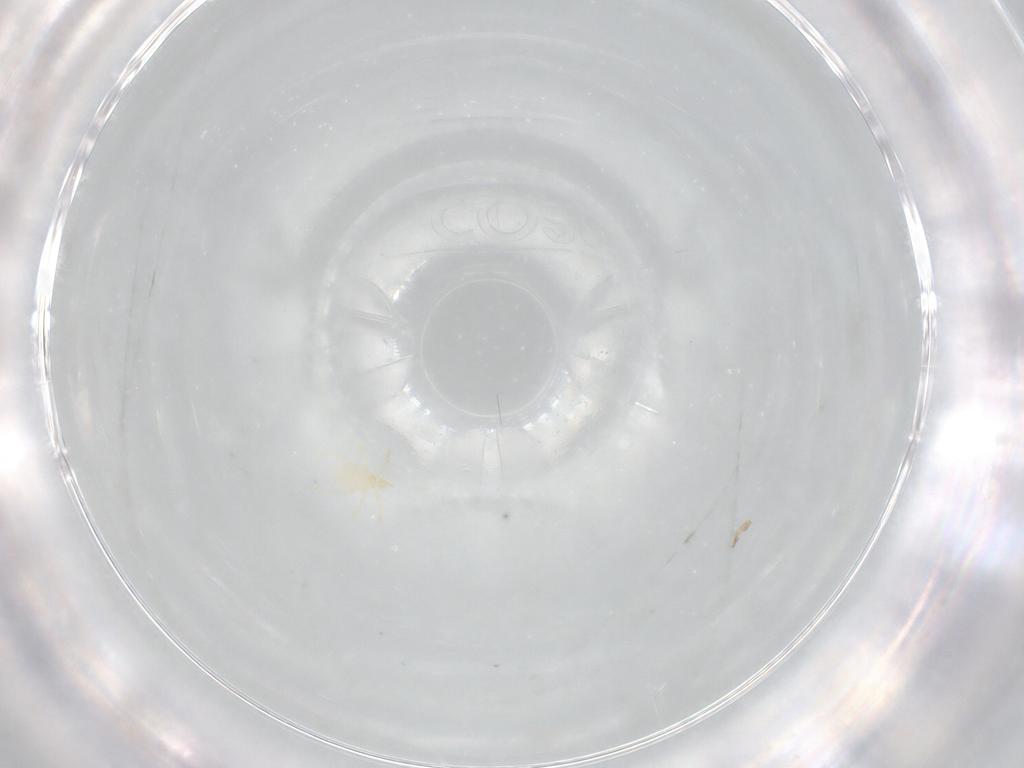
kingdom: Animalia
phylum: Arthropoda
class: Arachnida
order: Trombidiformes
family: Erythraeidae
